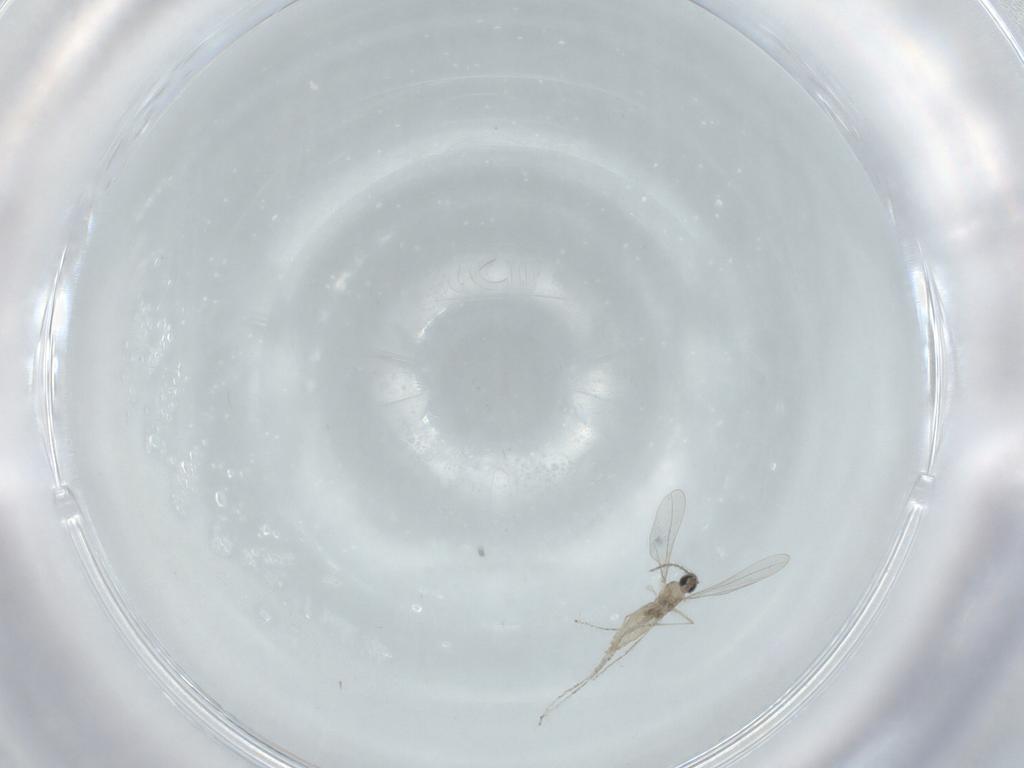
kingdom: Animalia
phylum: Arthropoda
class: Insecta
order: Diptera
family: Cecidomyiidae
